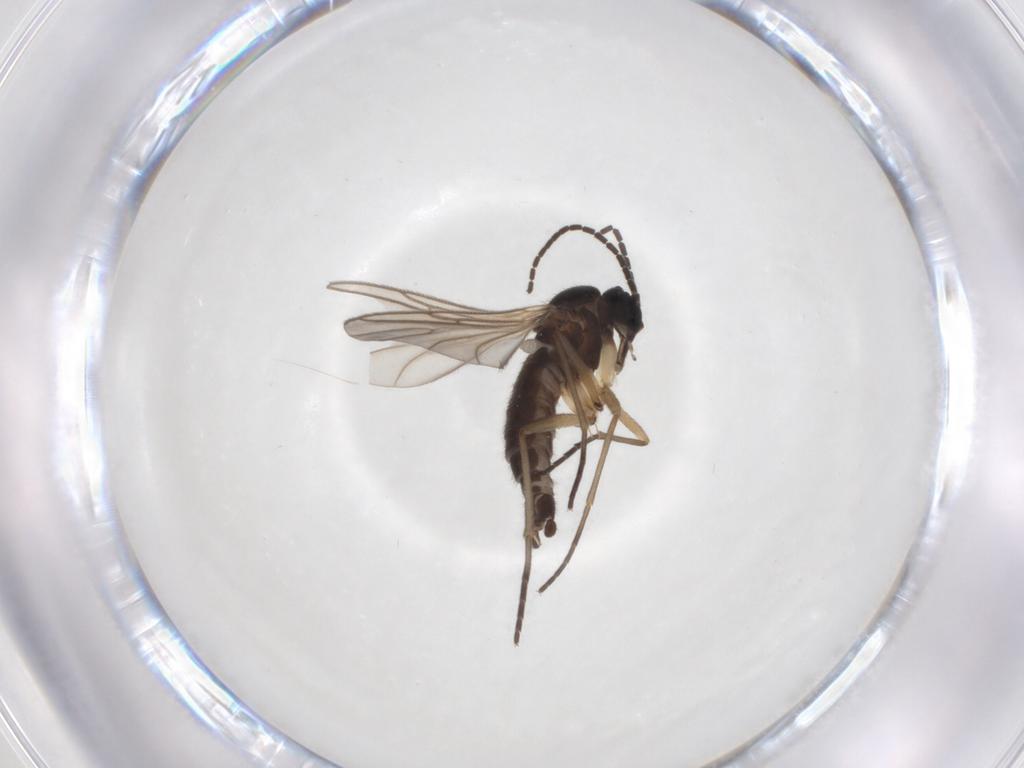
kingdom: Animalia
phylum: Arthropoda
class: Insecta
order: Diptera
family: Sciaridae
